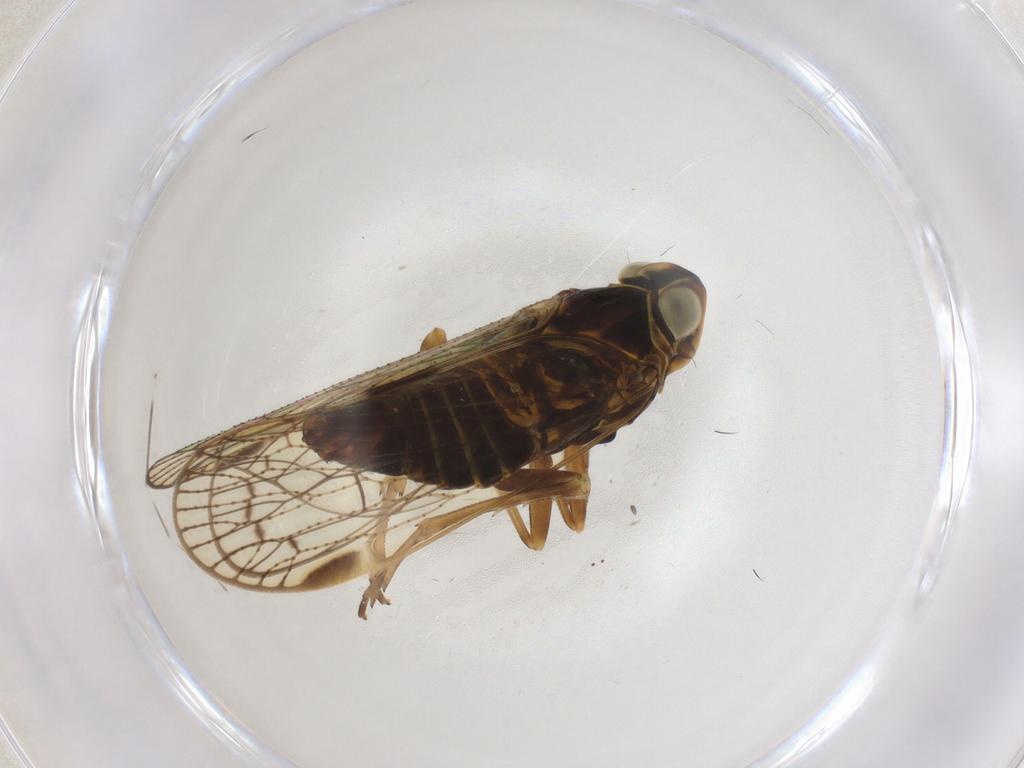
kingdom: Animalia
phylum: Arthropoda
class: Insecta
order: Hemiptera
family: Cixiidae
